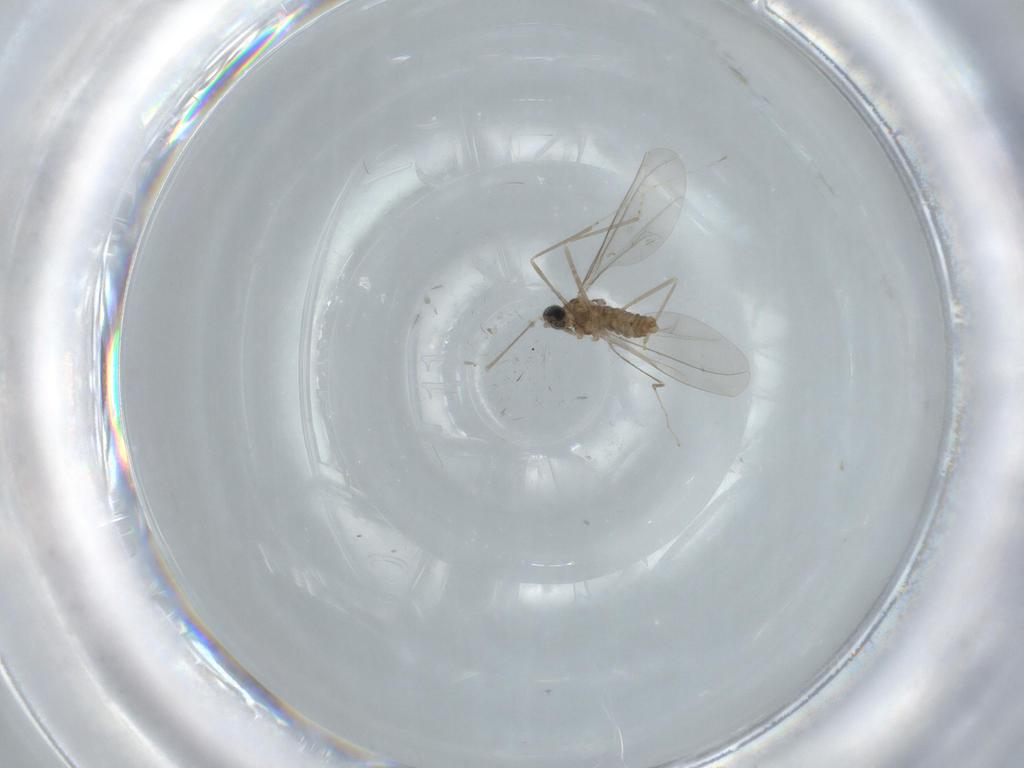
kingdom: Animalia
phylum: Arthropoda
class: Insecta
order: Diptera
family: Cecidomyiidae
